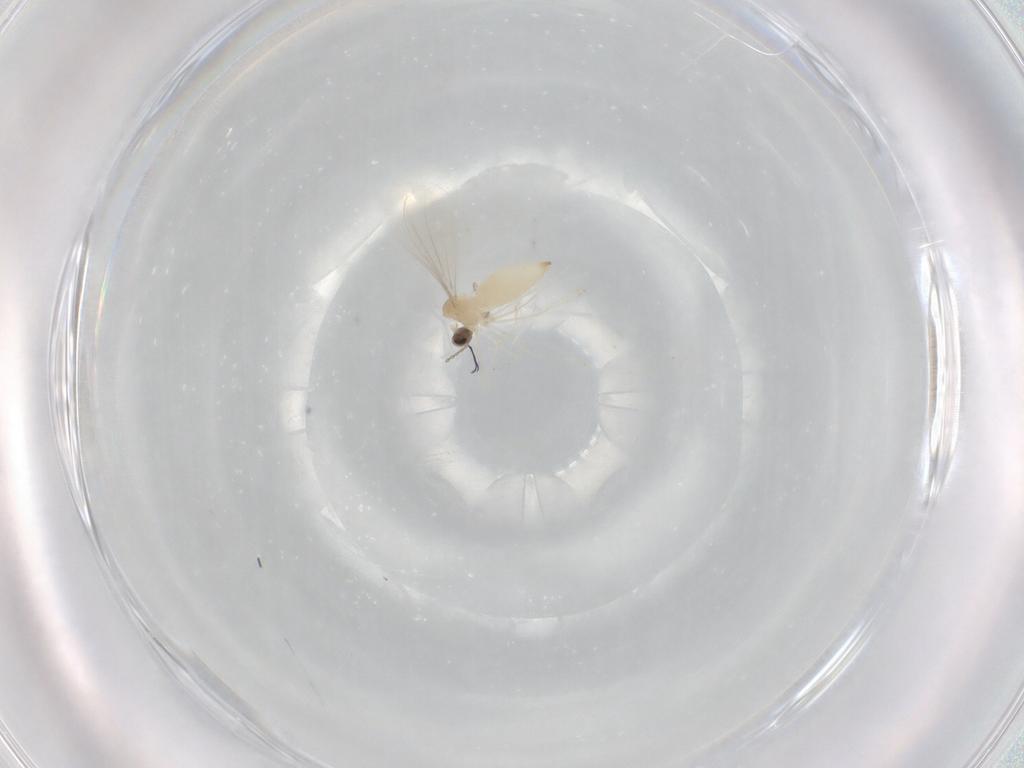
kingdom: Animalia
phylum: Arthropoda
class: Insecta
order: Diptera
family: Cecidomyiidae
